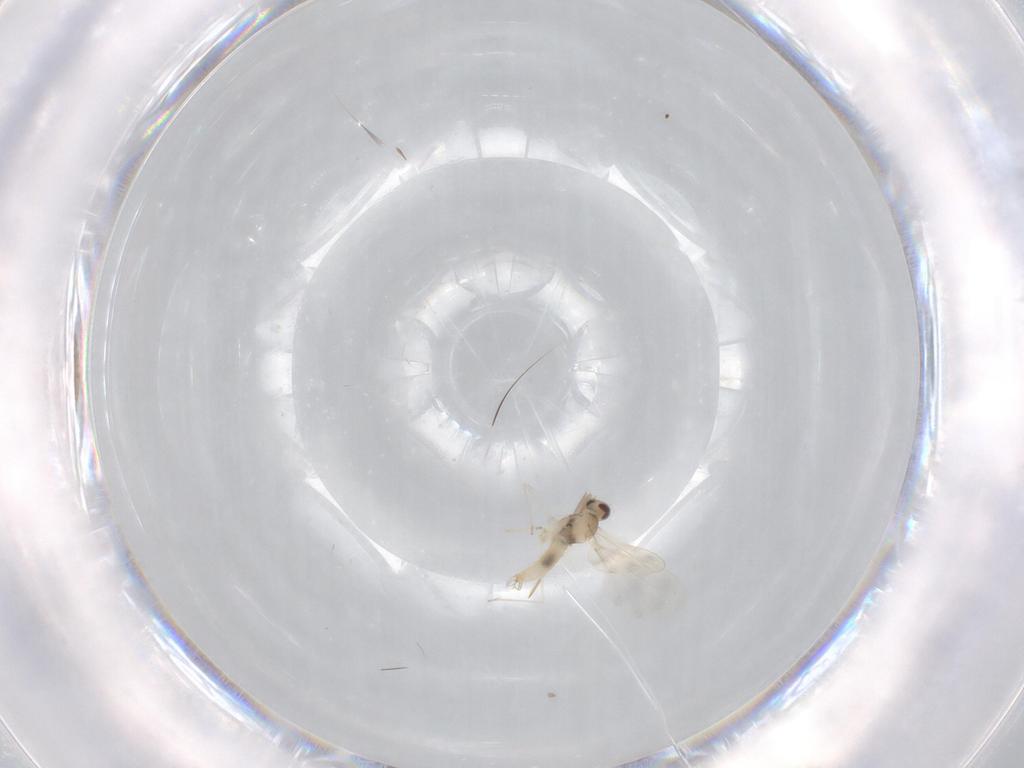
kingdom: Animalia
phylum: Arthropoda
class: Insecta
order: Diptera
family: Cecidomyiidae
